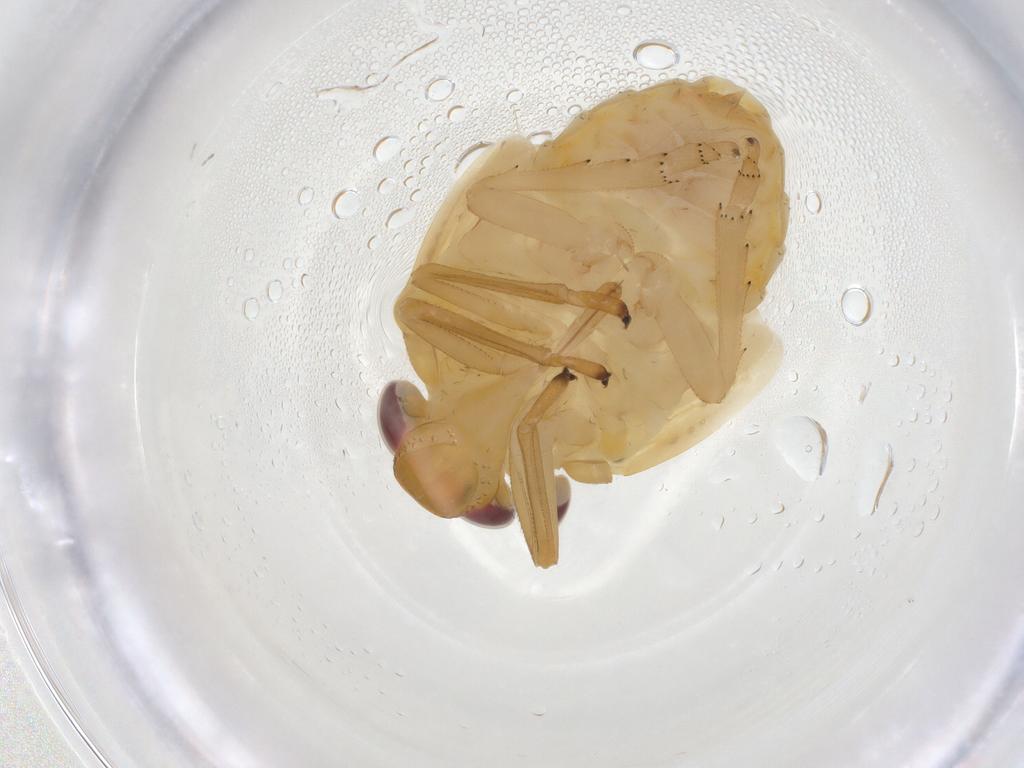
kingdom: Animalia
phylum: Arthropoda
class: Insecta
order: Hemiptera
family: Issidae
